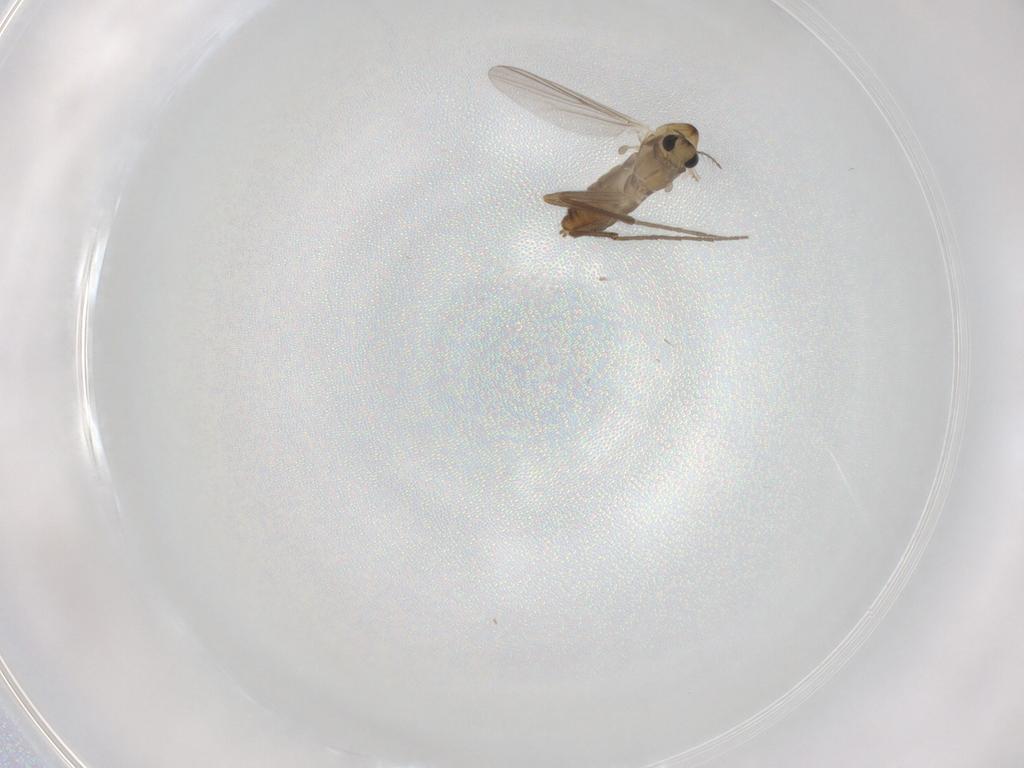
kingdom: Animalia
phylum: Arthropoda
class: Insecta
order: Diptera
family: Chironomidae
